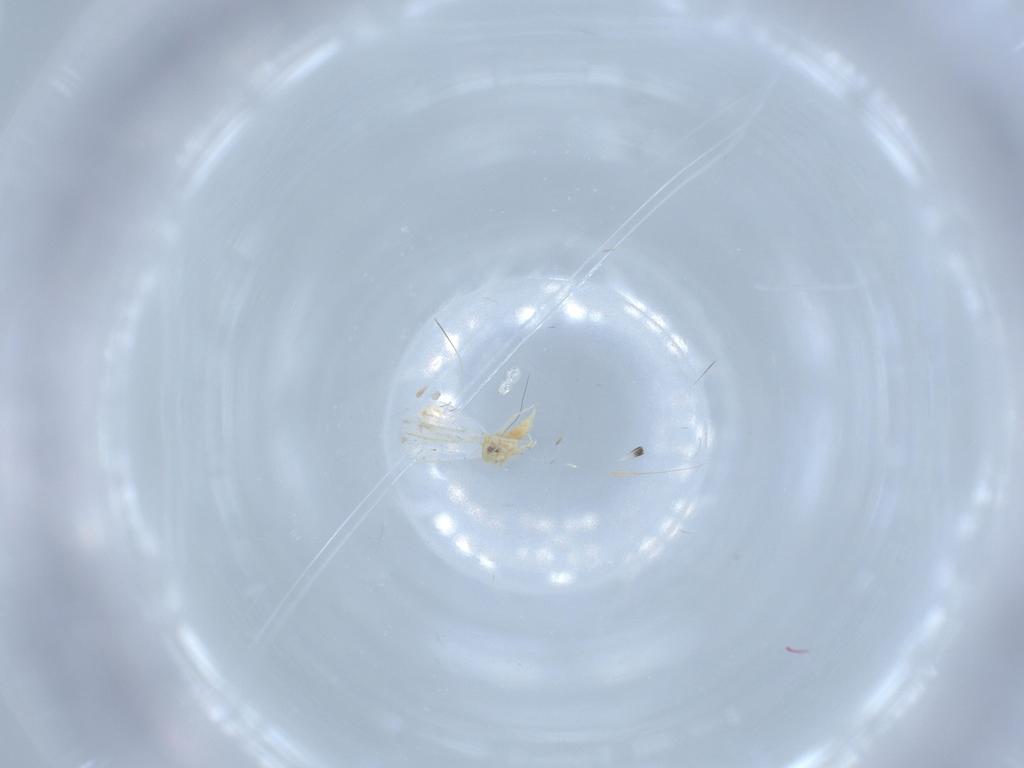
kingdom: Animalia
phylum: Arthropoda
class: Insecta
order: Hemiptera
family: Aleyrodidae
